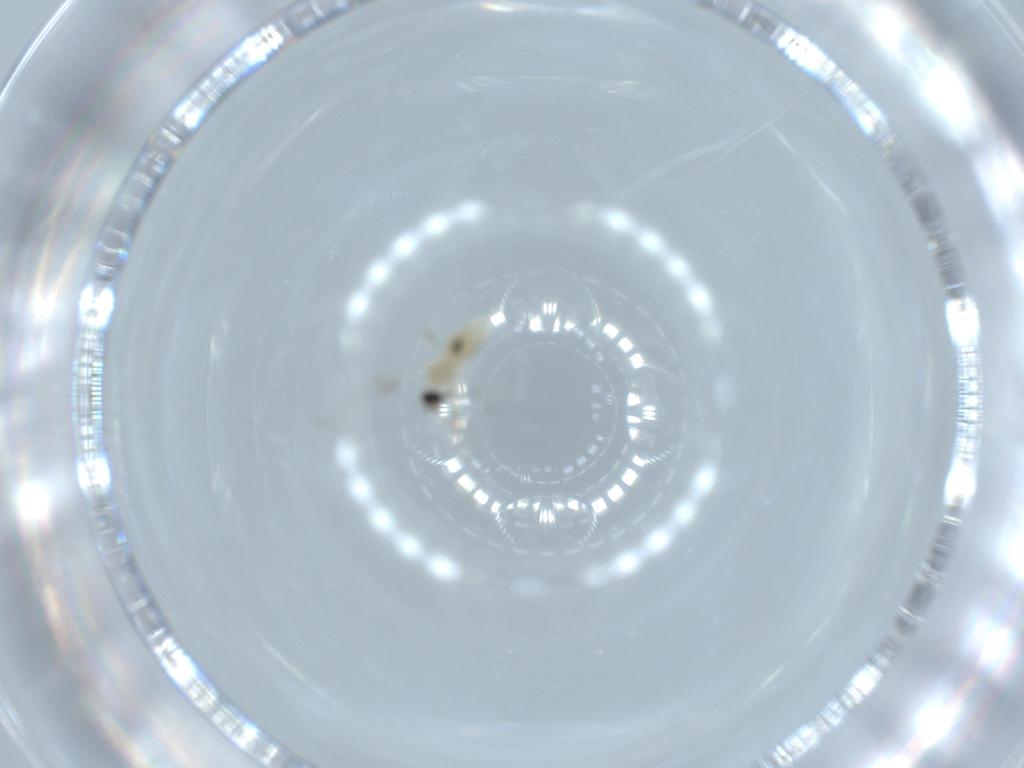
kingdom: Animalia
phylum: Arthropoda
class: Insecta
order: Diptera
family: Cecidomyiidae
